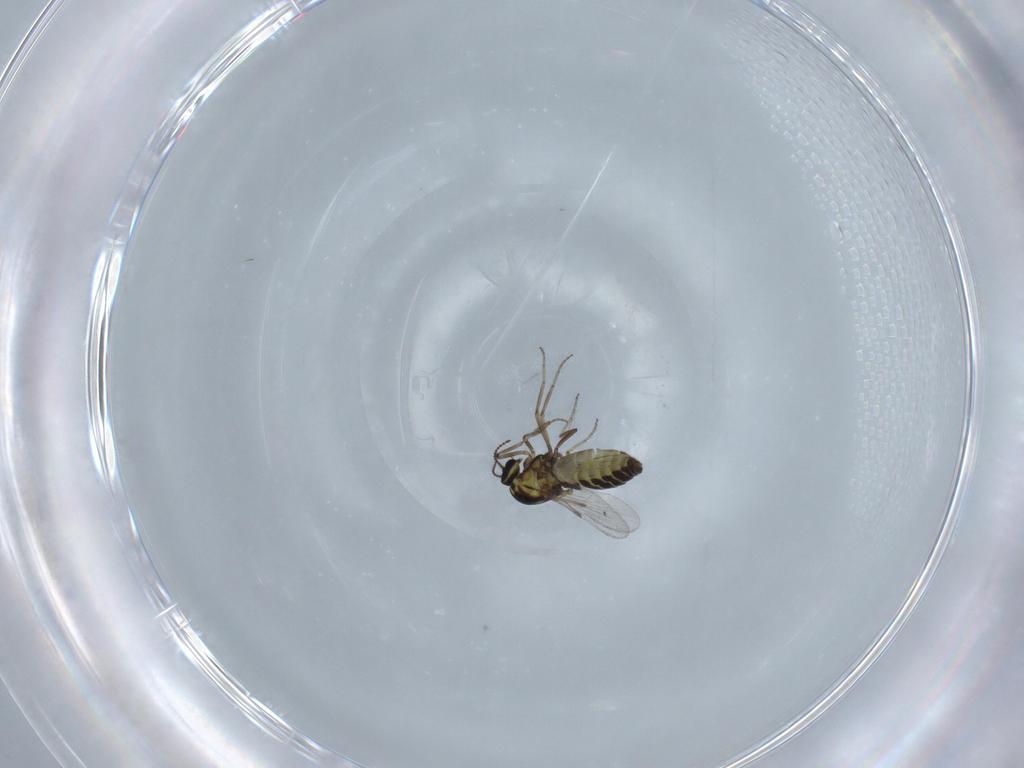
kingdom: Animalia
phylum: Arthropoda
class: Insecta
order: Diptera
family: Ceratopogonidae
